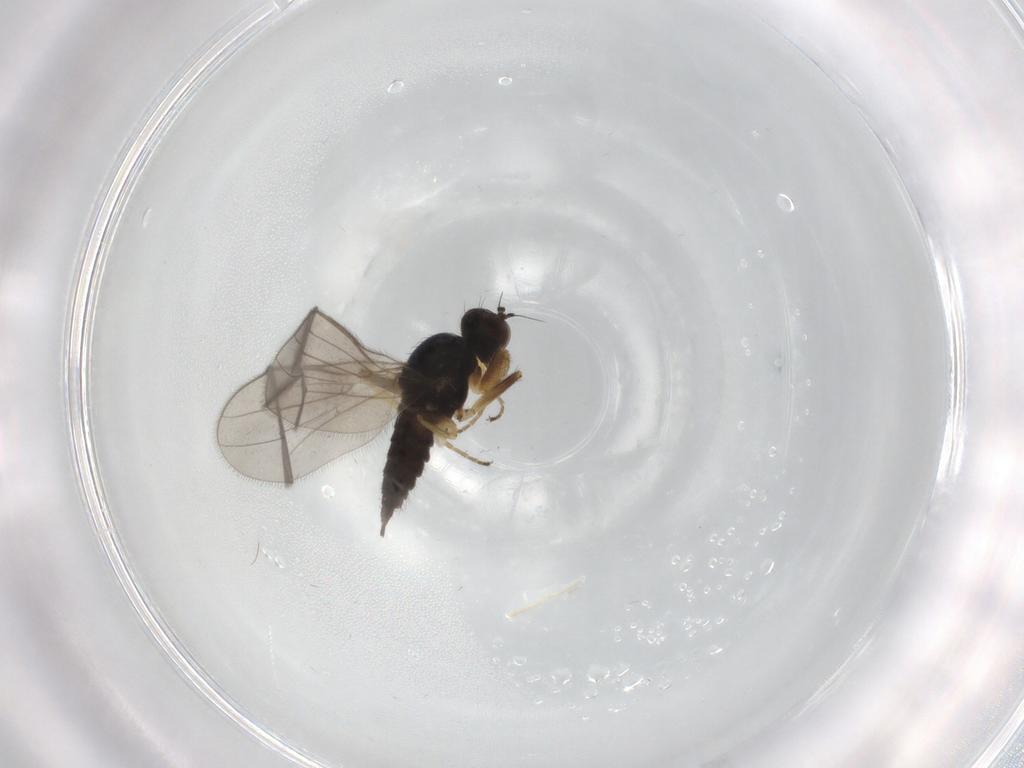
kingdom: Animalia
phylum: Arthropoda
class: Insecta
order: Diptera
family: Hybotidae
